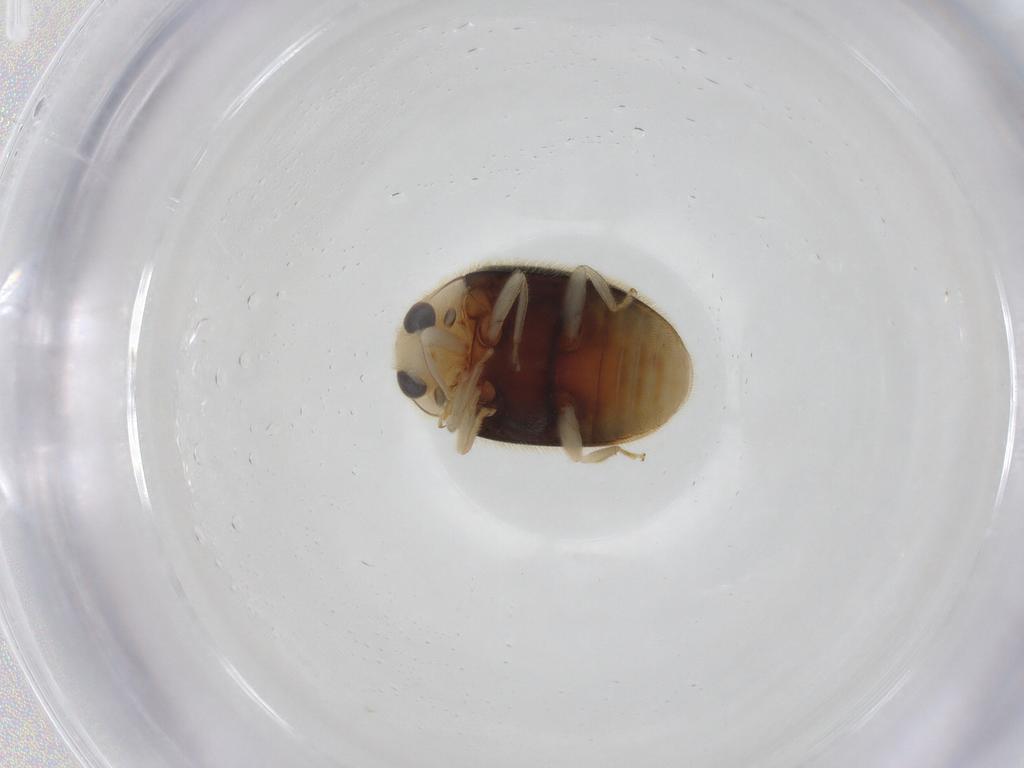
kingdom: Animalia
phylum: Arthropoda
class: Insecta
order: Coleoptera
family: Coccinellidae
